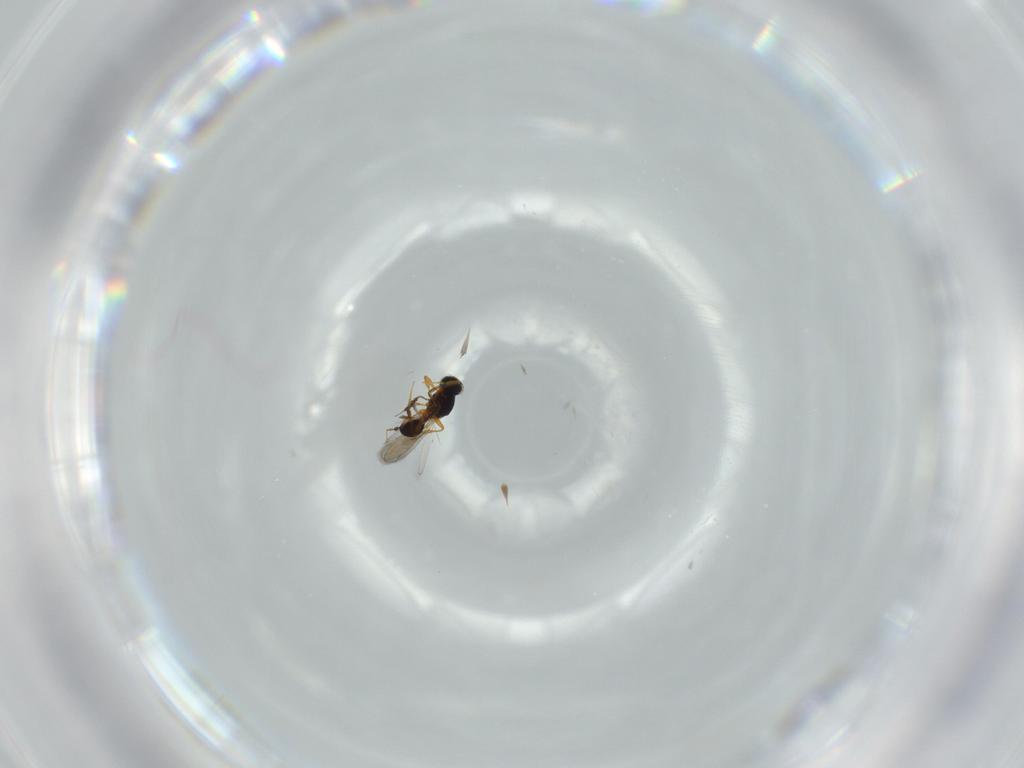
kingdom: Animalia
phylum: Arthropoda
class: Insecta
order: Hymenoptera
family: Platygastridae
